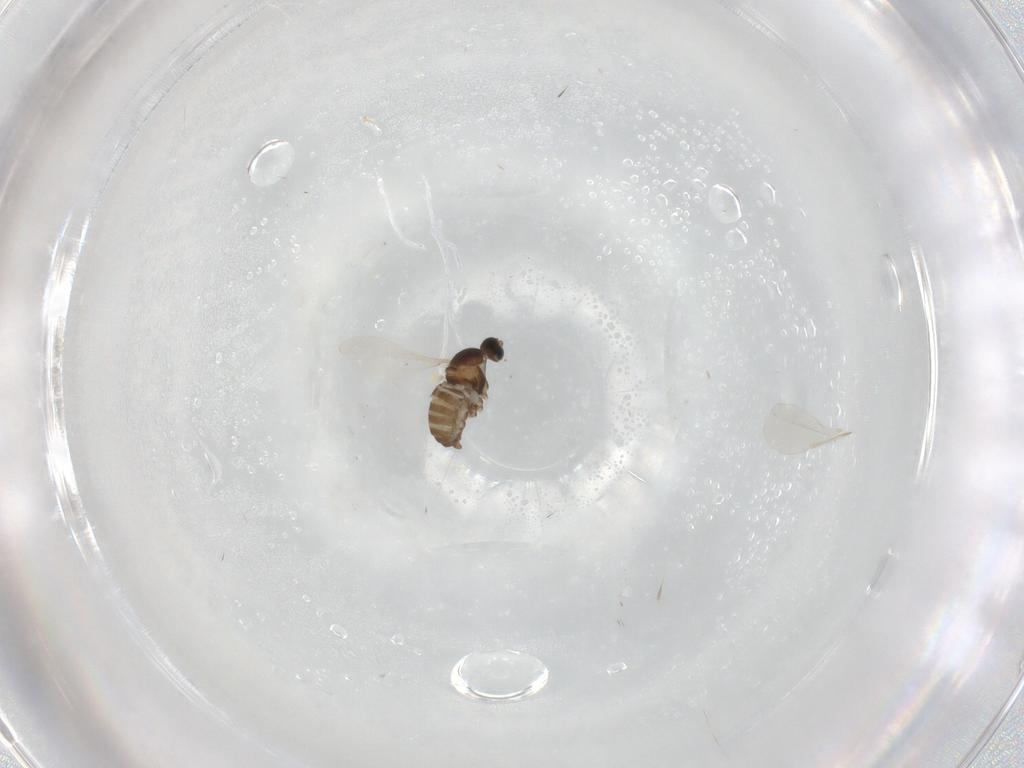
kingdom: Animalia
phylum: Arthropoda
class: Insecta
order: Diptera
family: Cecidomyiidae
